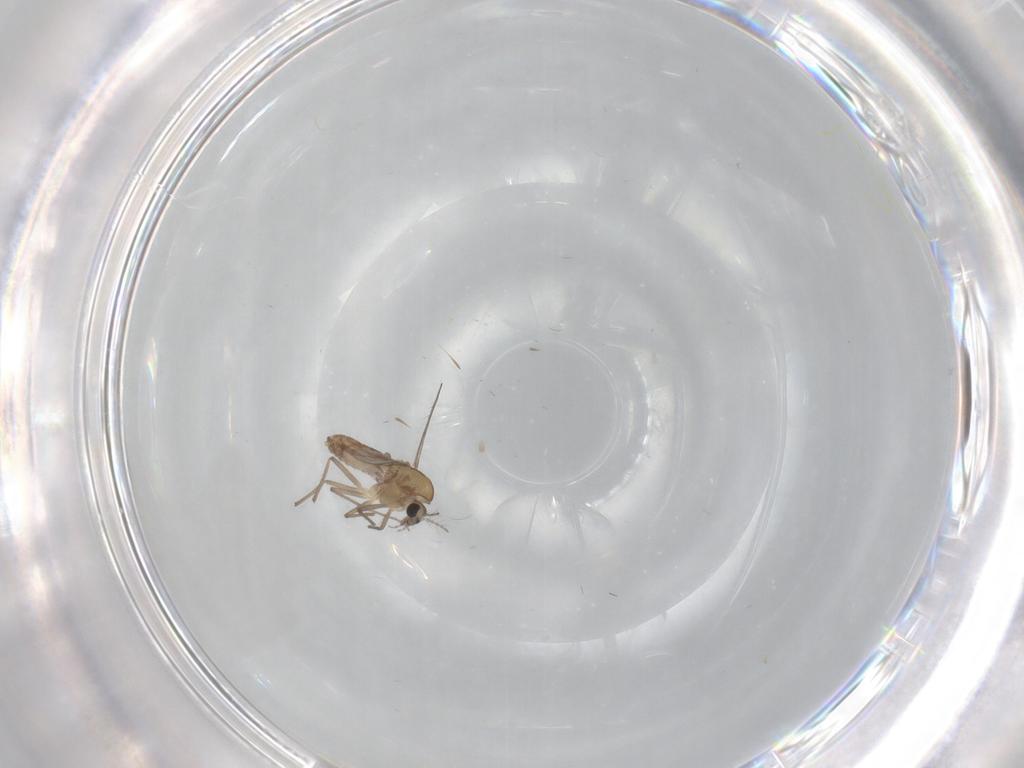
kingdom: Animalia
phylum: Arthropoda
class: Insecta
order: Diptera
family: Chironomidae
